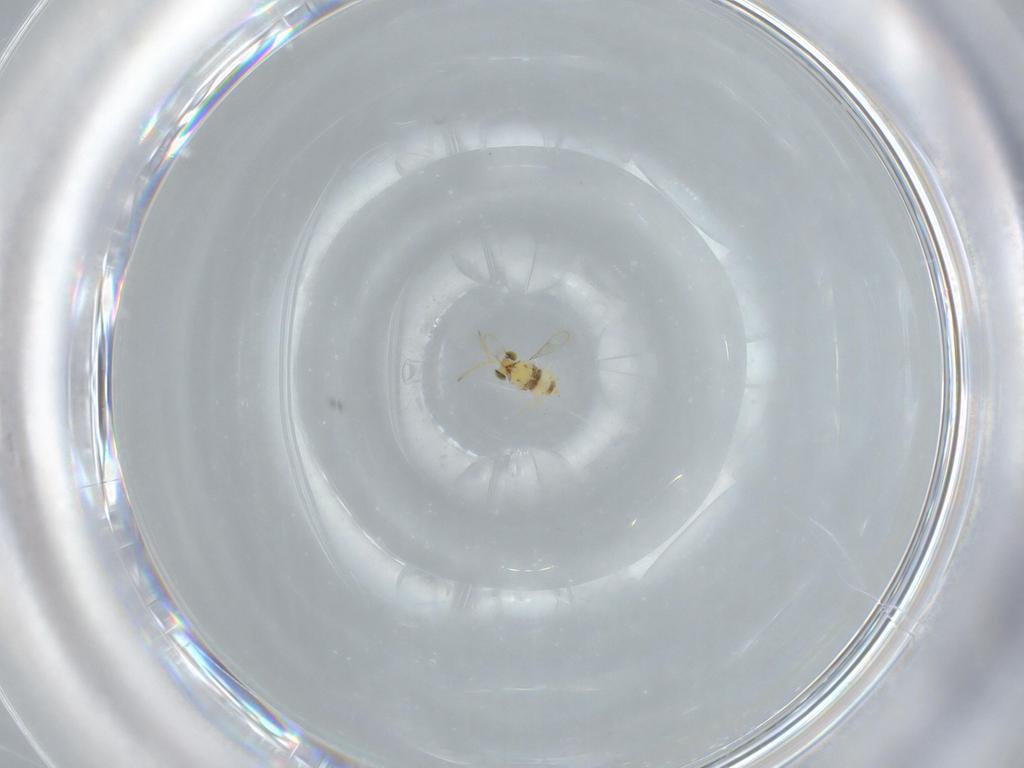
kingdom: Animalia
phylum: Arthropoda
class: Insecta
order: Hymenoptera
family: Aphelinidae
